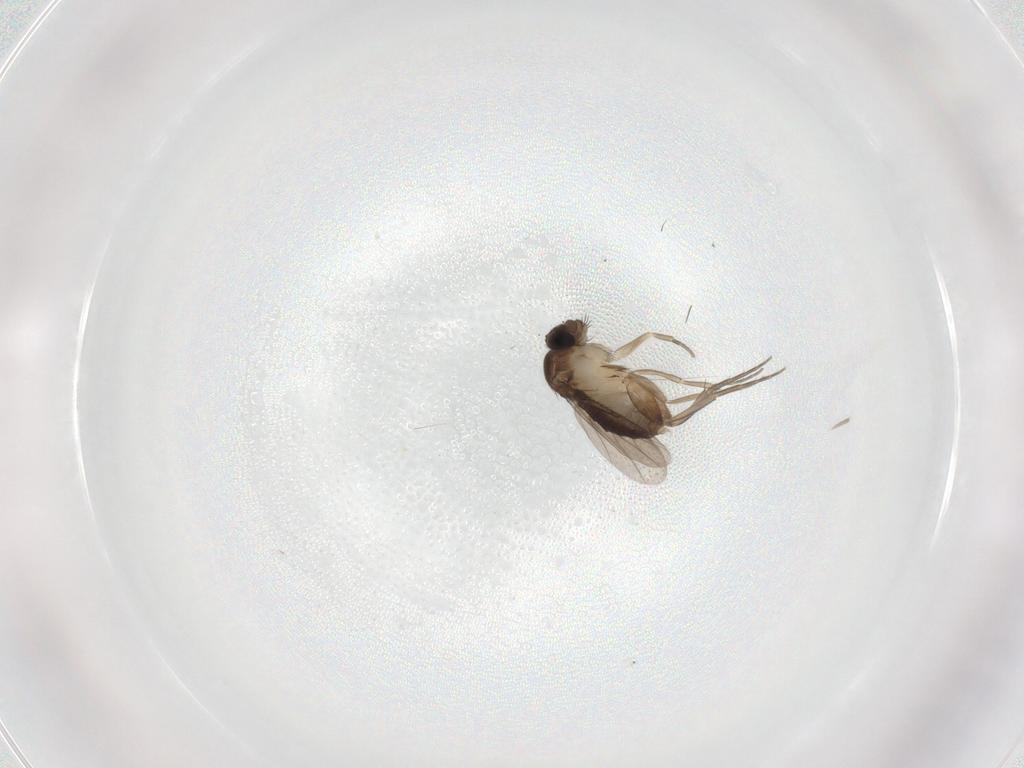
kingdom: Animalia
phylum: Arthropoda
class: Insecta
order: Diptera
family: Phoridae
